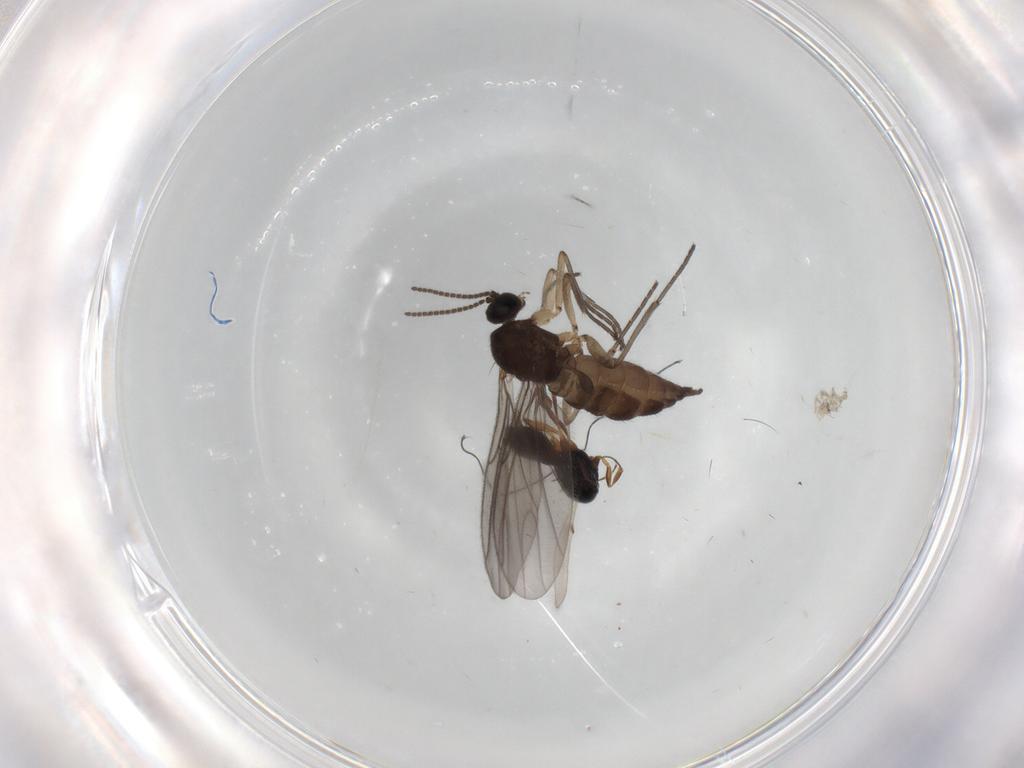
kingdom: Animalia
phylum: Arthropoda
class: Insecta
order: Hymenoptera
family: Scelionidae
